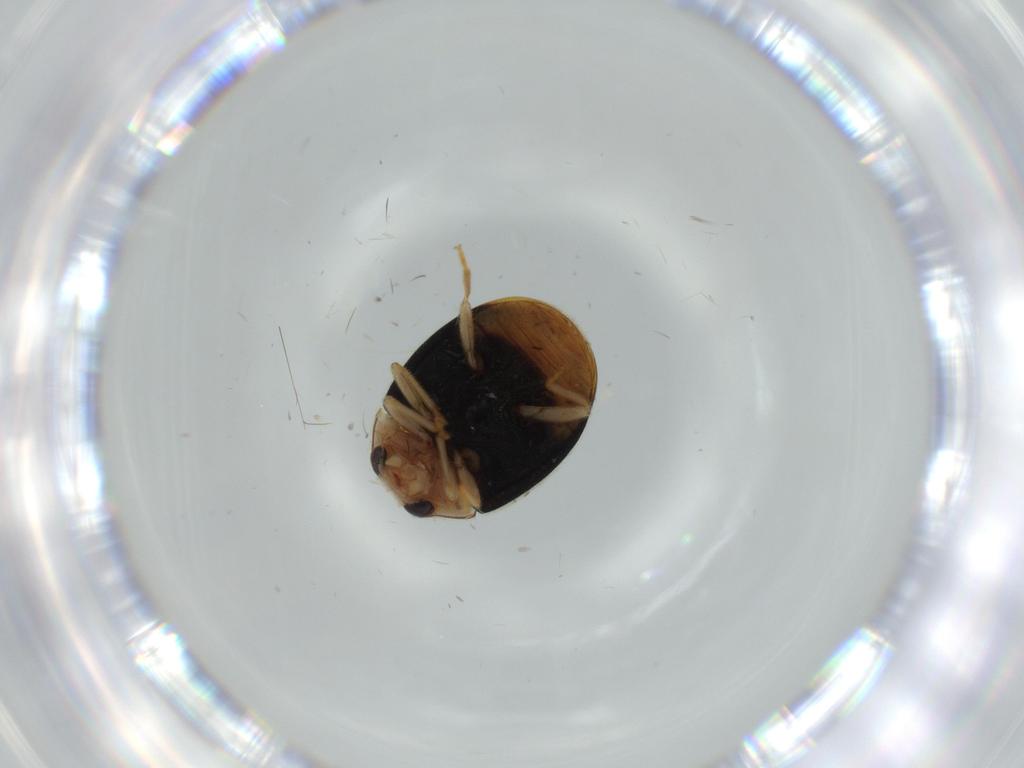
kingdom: Animalia
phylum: Arthropoda
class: Insecta
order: Coleoptera
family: Coccinellidae
